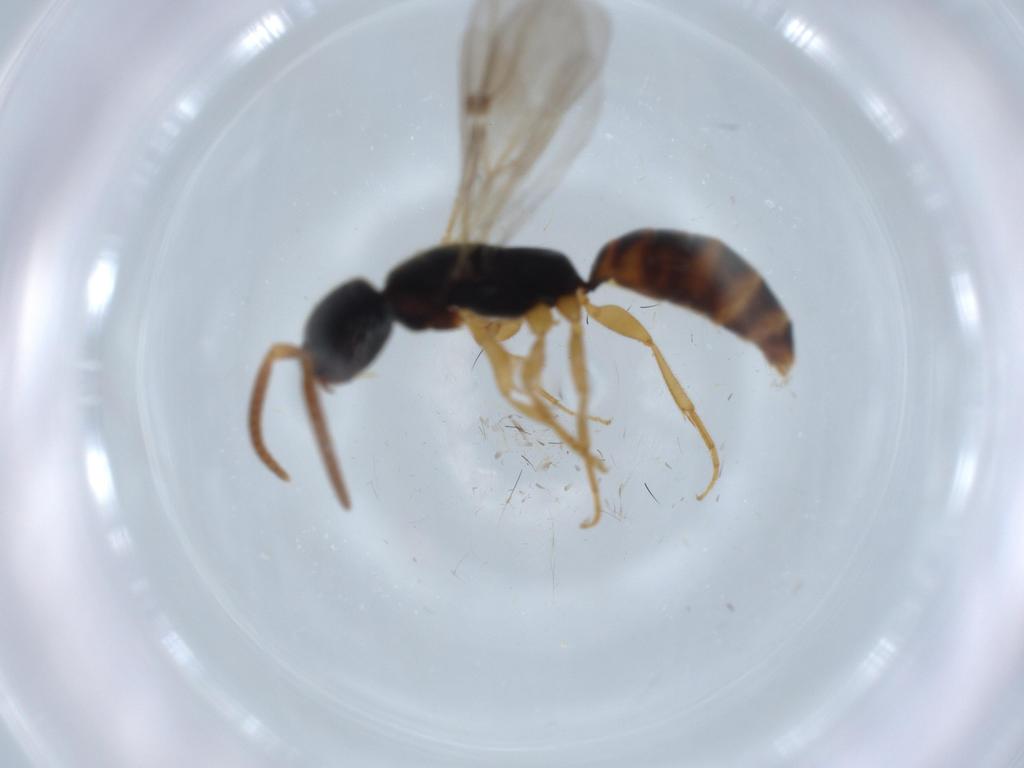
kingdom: Animalia
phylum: Arthropoda
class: Insecta
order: Hymenoptera
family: Bethylidae
